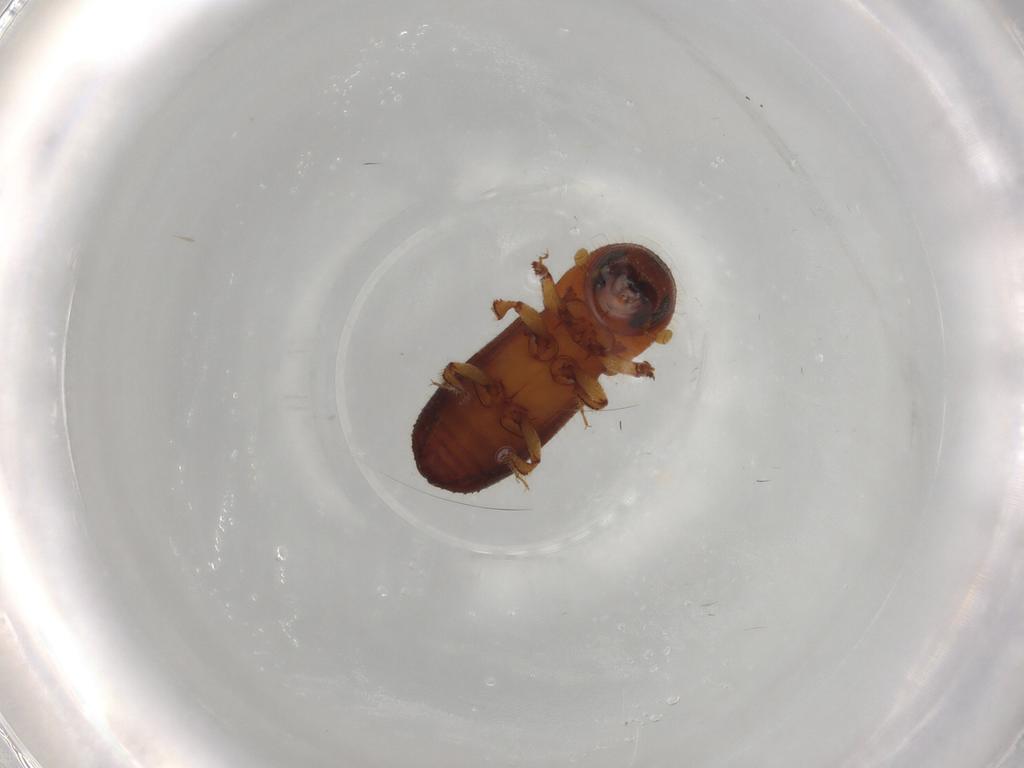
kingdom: Animalia
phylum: Arthropoda
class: Insecta
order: Coleoptera
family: Curculionidae
